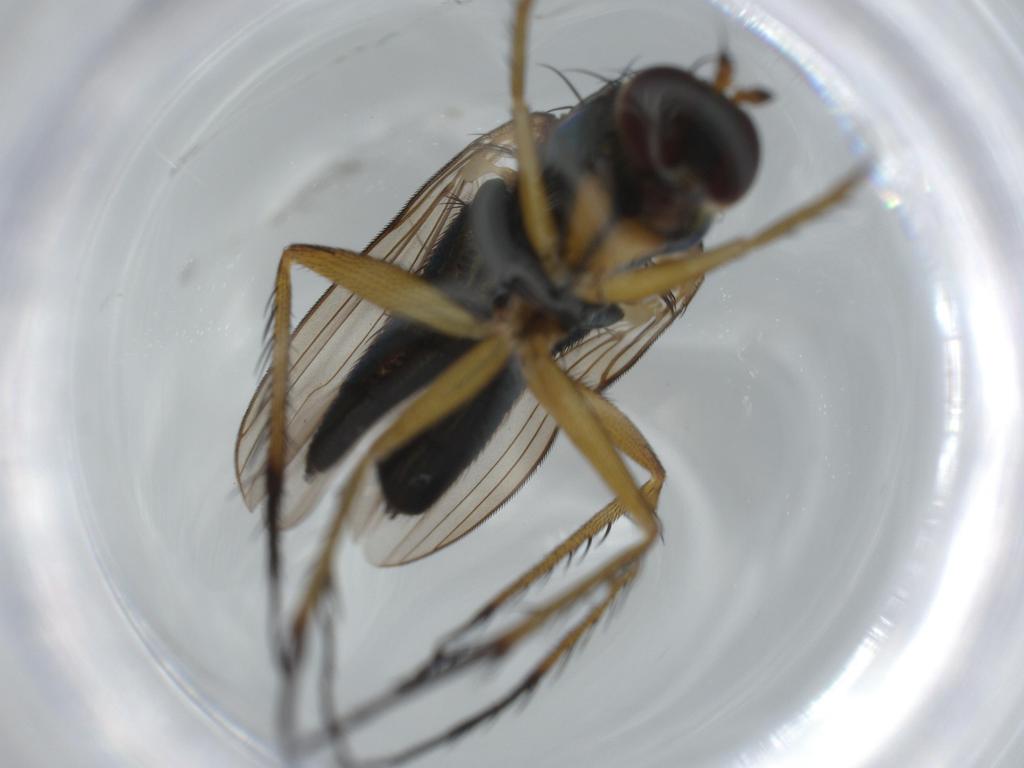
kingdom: Animalia
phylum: Arthropoda
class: Insecta
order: Diptera
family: Dolichopodidae
